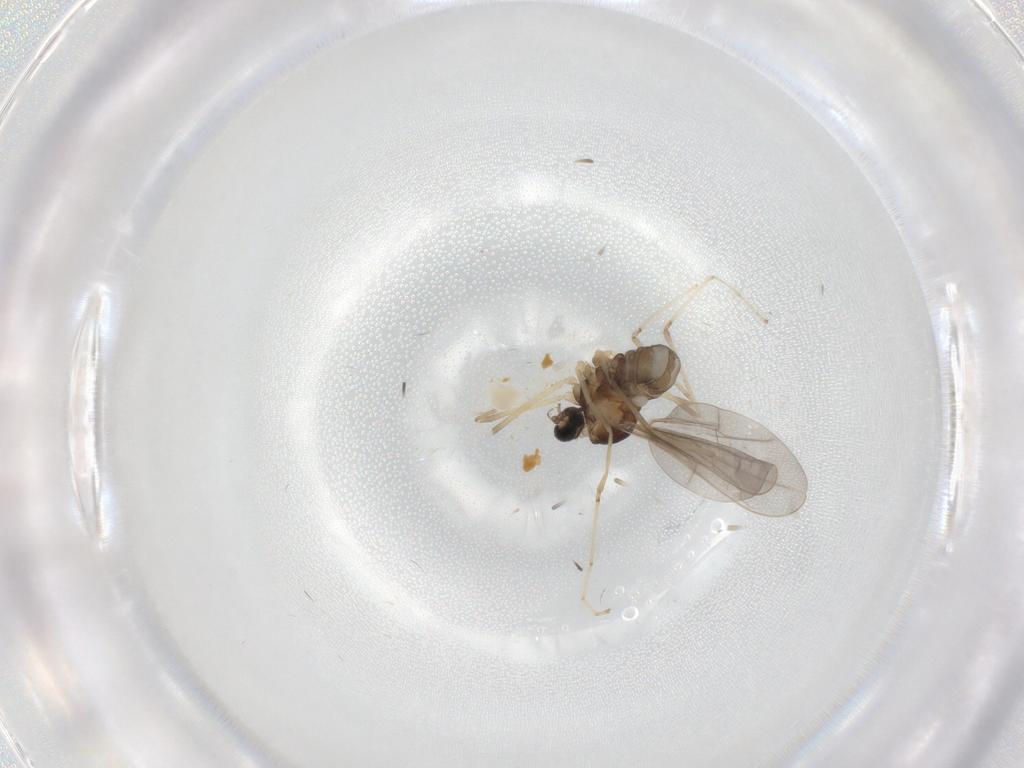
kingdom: Animalia
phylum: Arthropoda
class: Insecta
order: Diptera
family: Cecidomyiidae
